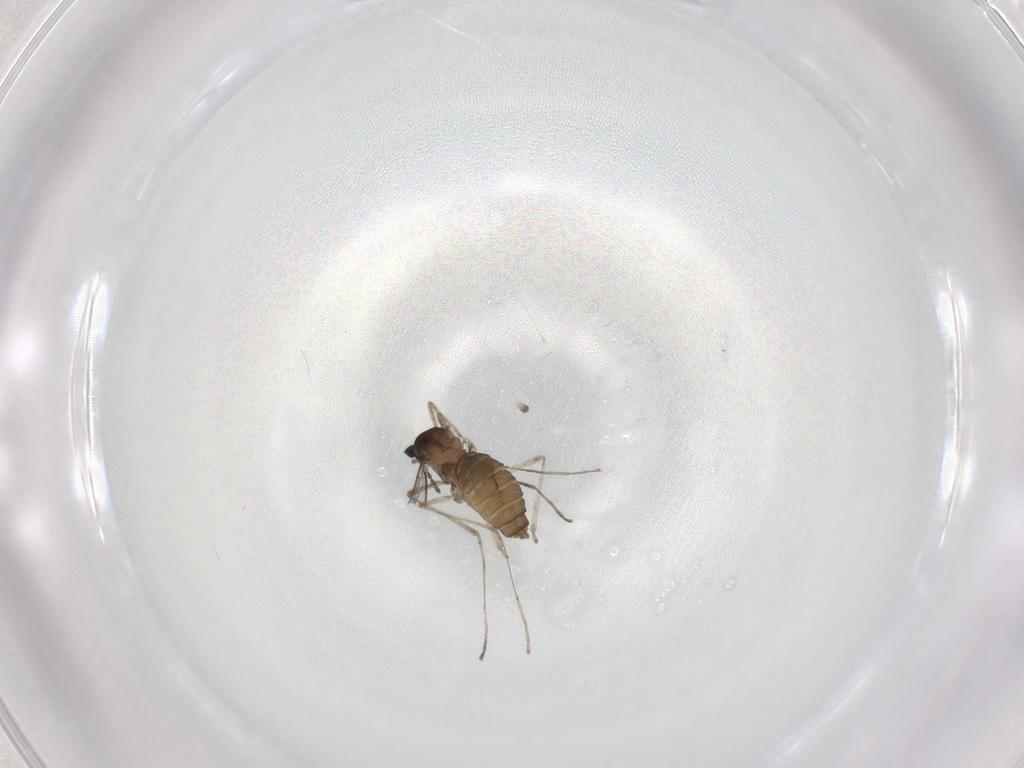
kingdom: Animalia
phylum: Arthropoda
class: Insecta
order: Diptera
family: Cecidomyiidae
